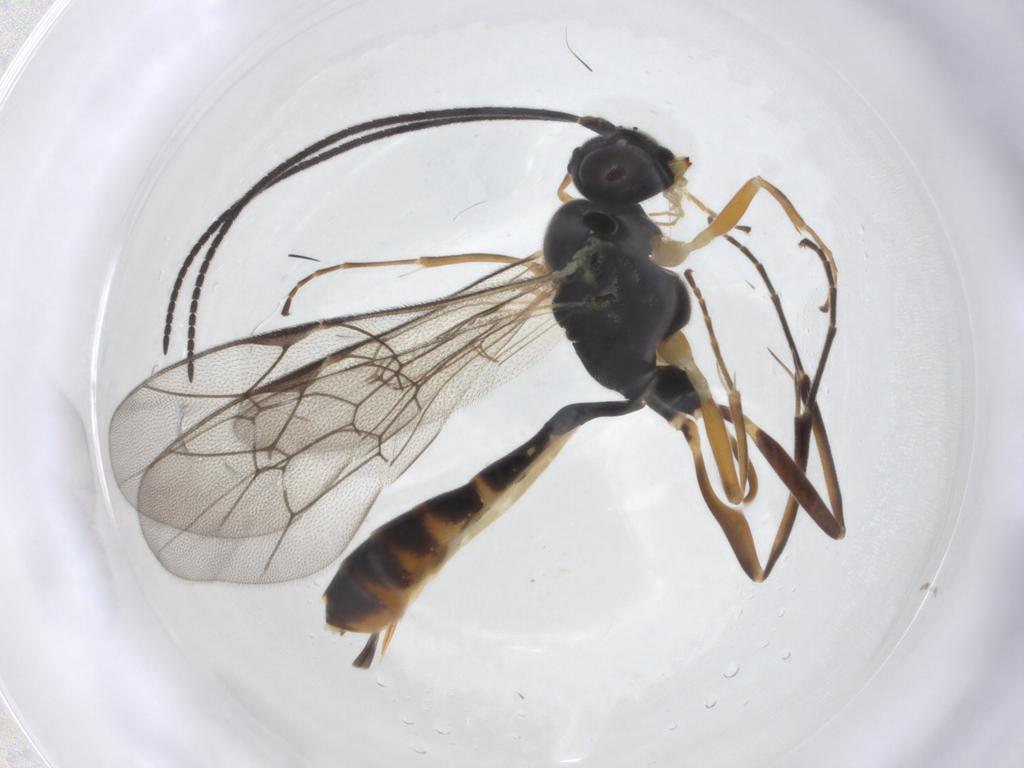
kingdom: Animalia
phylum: Arthropoda
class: Insecta
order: Hymenoptera
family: Ichneumonidae
